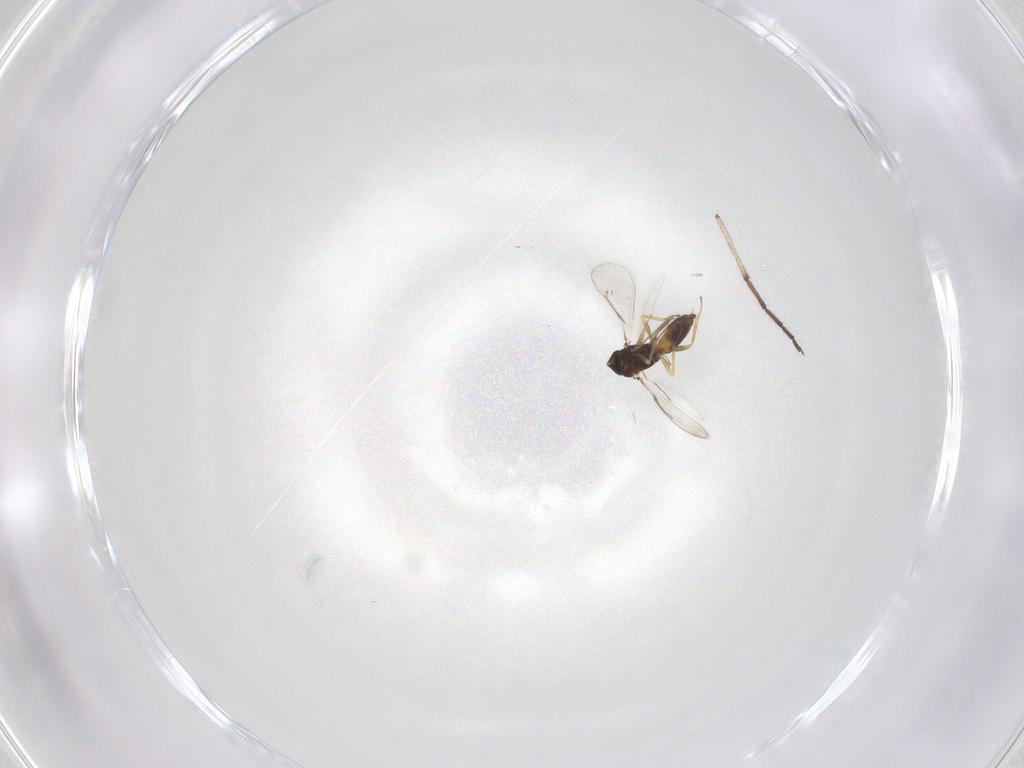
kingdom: Animalia
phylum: Arthropoda
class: Insecta
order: Hymenoptera
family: Eulophidae
